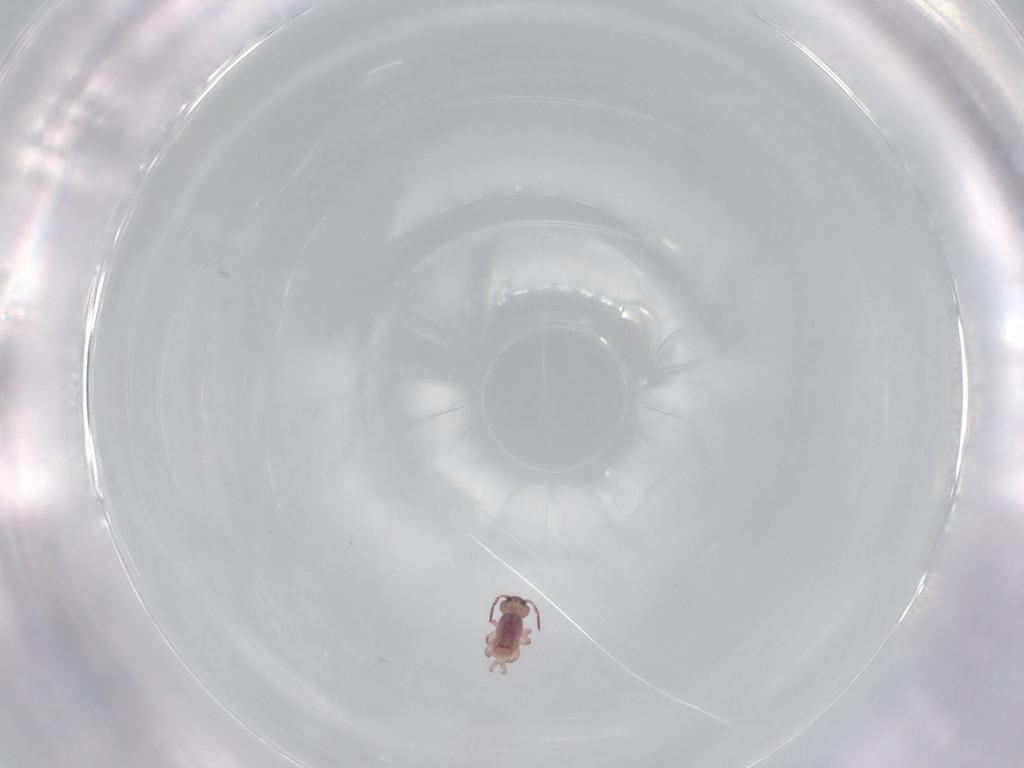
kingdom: Animalia
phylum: Arthropoda
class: Collembola
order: Symphypleona
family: Sminthurididae
